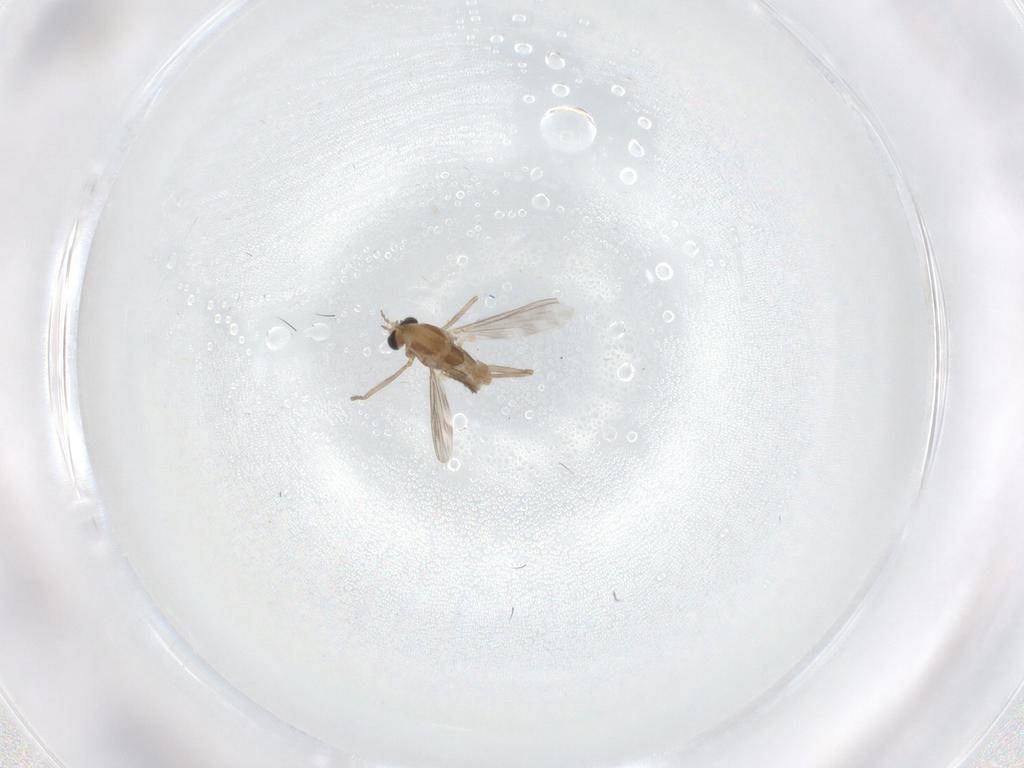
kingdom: Animalia
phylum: Arthropoda
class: Insecta
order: Diptera
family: Chironomidae
